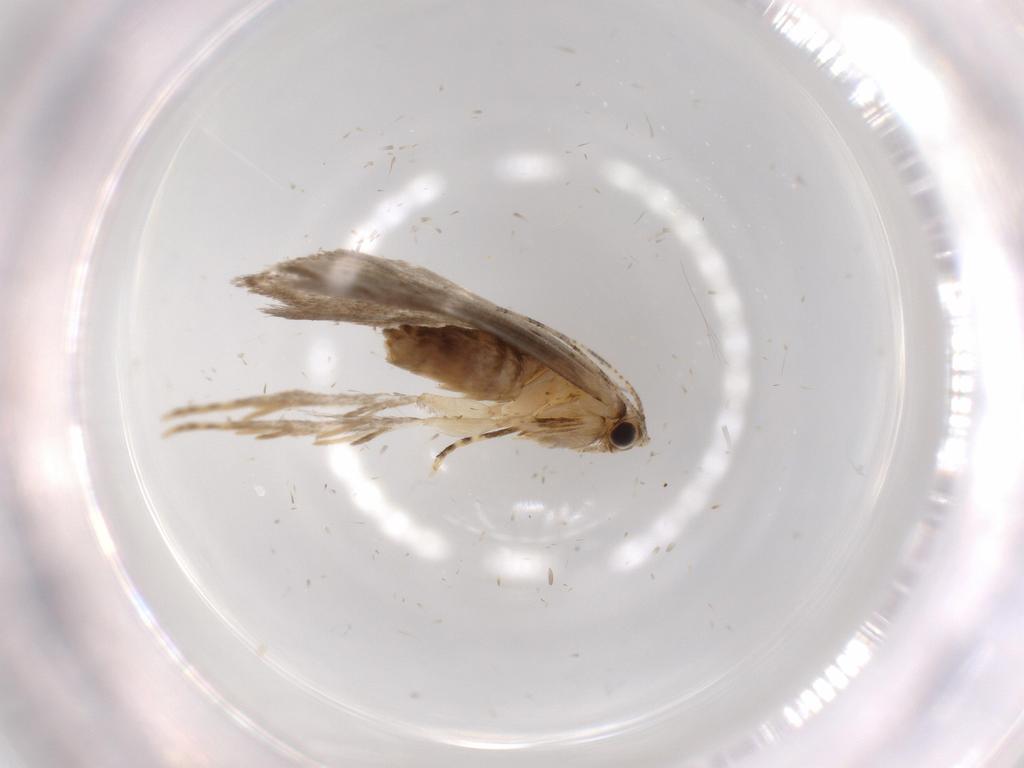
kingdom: Animalia
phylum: Arthropoda
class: Insecta
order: Lepidoptera
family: Tineidae
